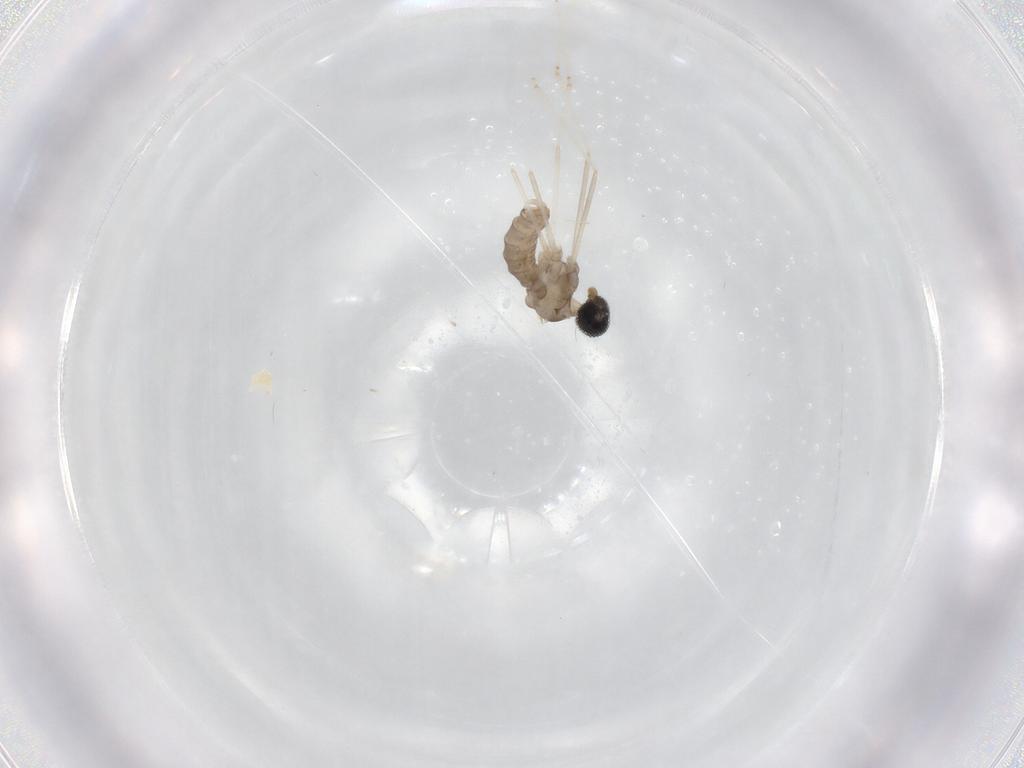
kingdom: Animalia
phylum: Arthropoda
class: Insecta
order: Diptera
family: Cecidomyiidae
